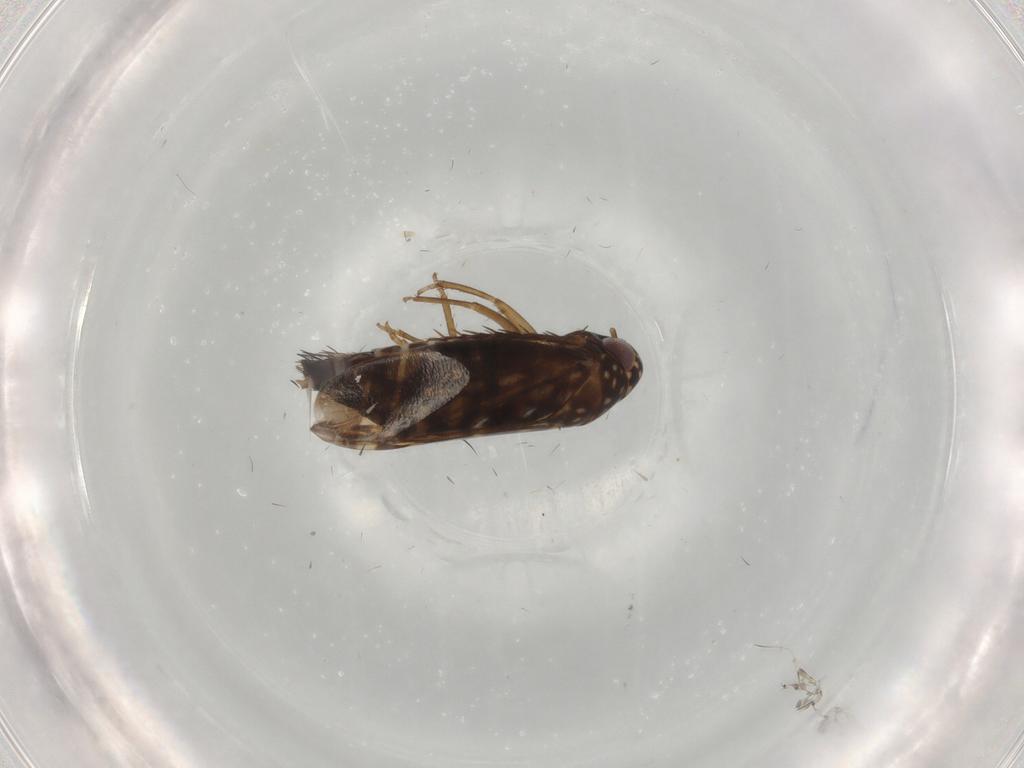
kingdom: Animalia
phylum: Arthropoda
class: Insecta
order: Hemiptera
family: Cicadellidae
